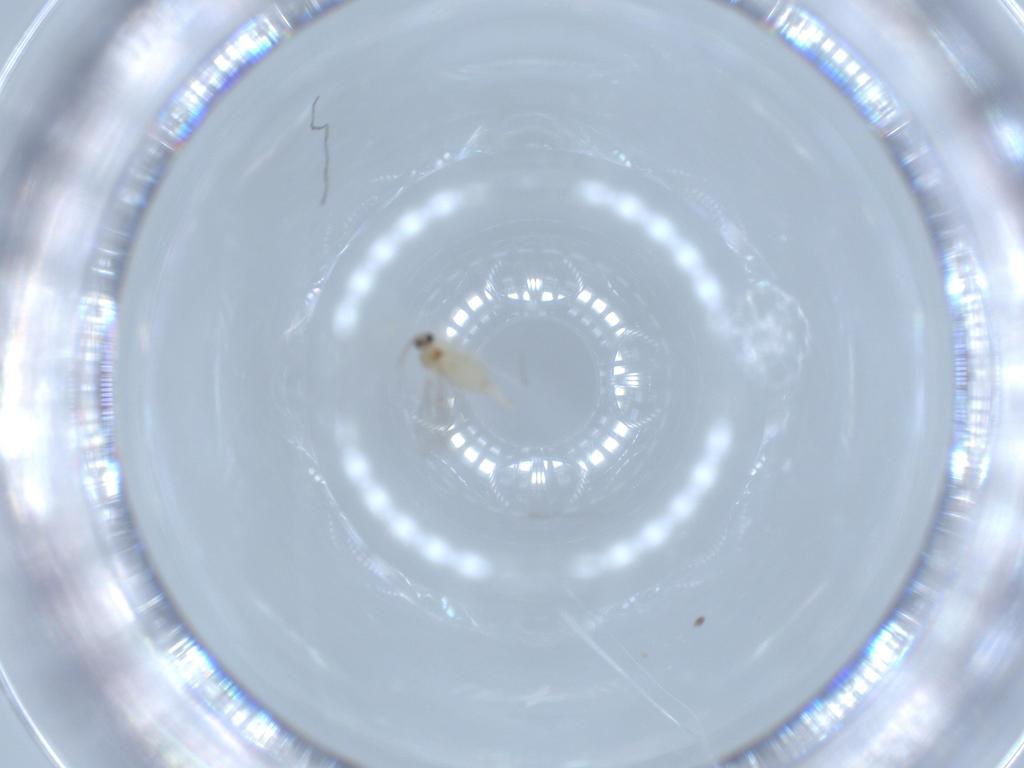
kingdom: Animalia
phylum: Arthropoda
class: Insecta
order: Diptera
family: Cecidomyiidae
